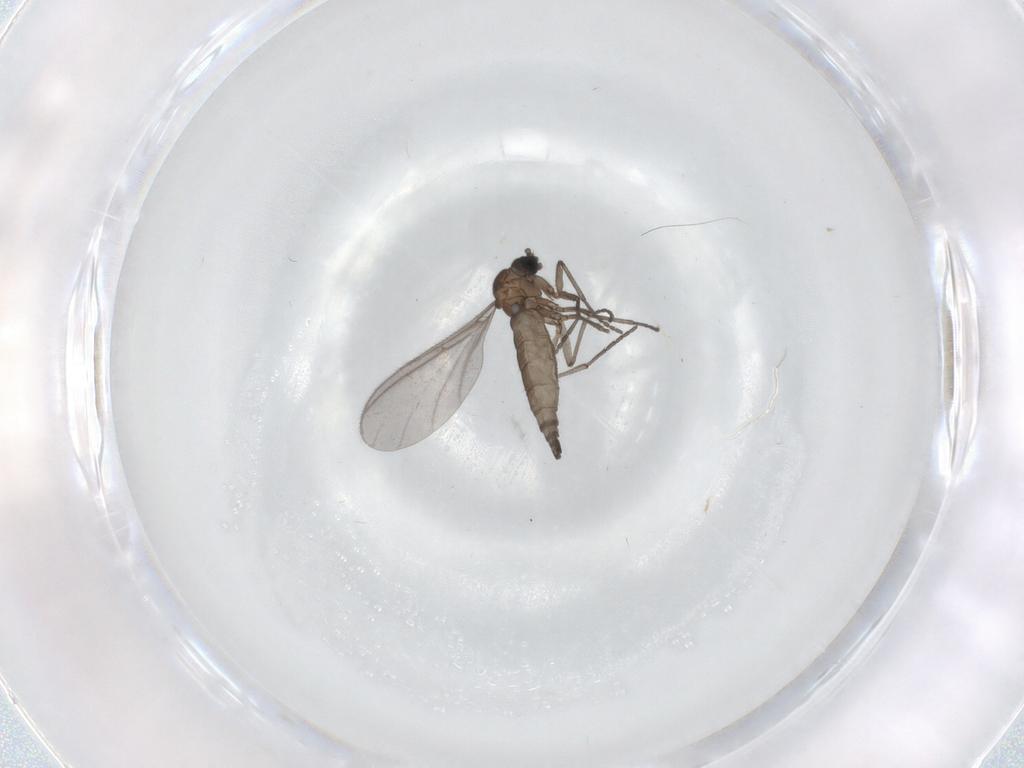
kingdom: Animalia
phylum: Arthropoda
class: Insecta
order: Diptera
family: Sciaridae
